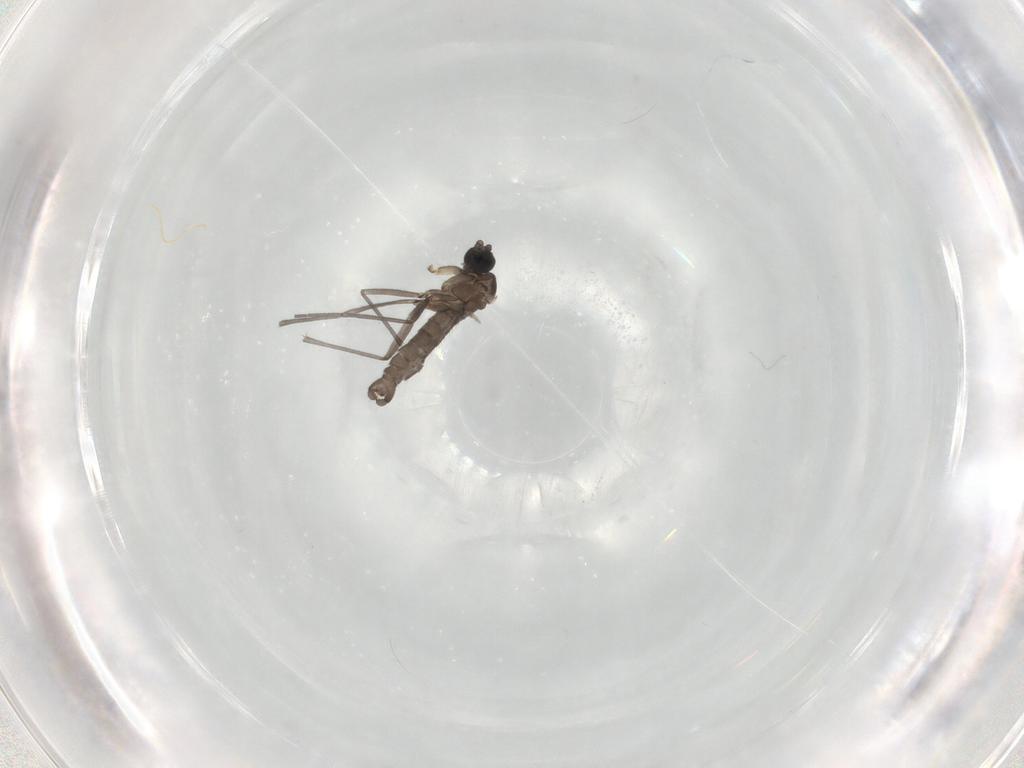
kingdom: Animalia
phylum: Arthropoda
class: Insecta
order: Diptera
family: Sciaridae
